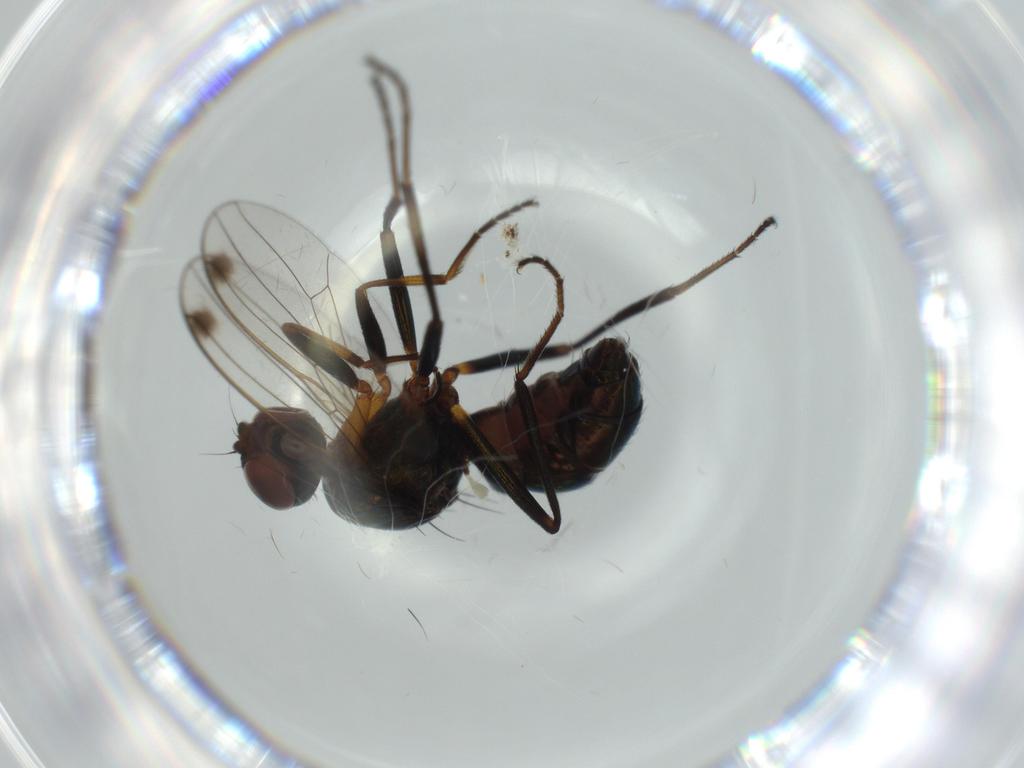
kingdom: Animalia
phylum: Arthropoda
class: Insecta
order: Diptera
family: Sepsidae
